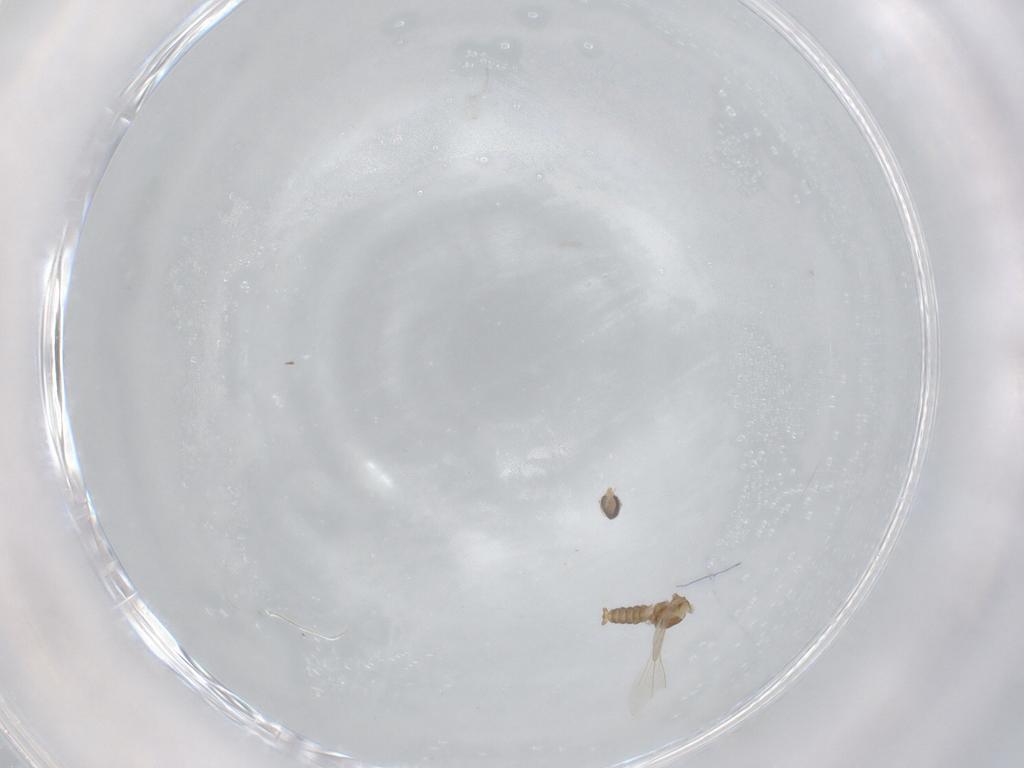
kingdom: Animalia
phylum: Arthropoda
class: Insecta
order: Diptera
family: Cecidomyiidae
